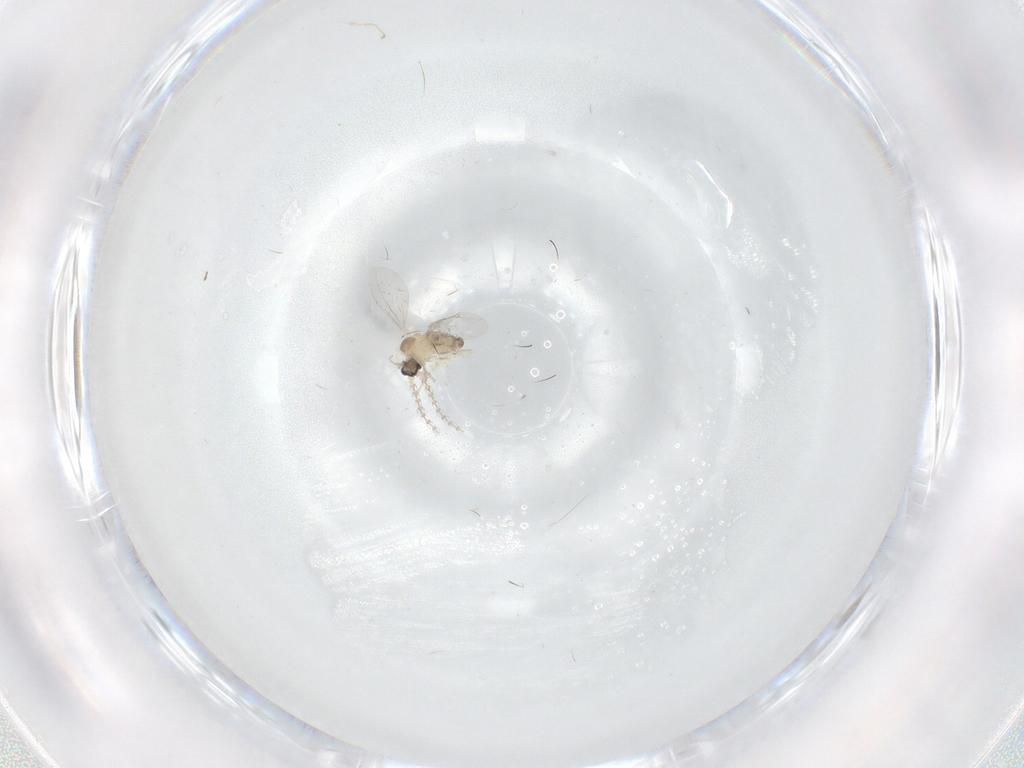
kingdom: Animalia
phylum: Arthropoda
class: Insecta
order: Diptera
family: Cecidomyiidae
